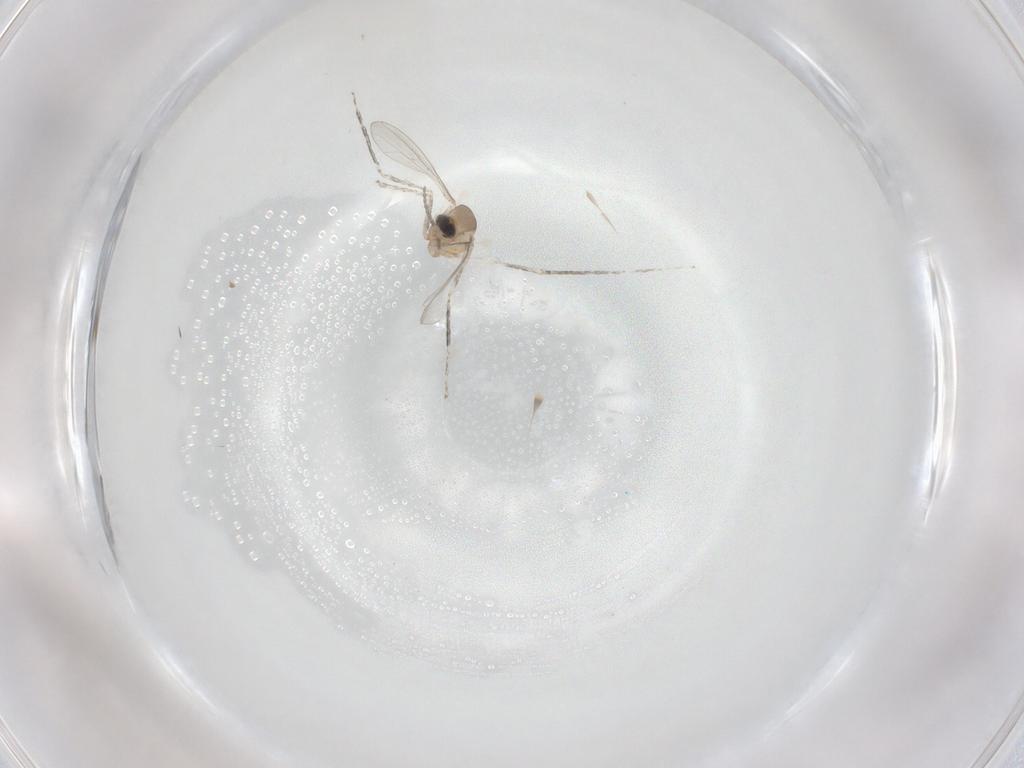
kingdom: Animalia
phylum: Arthropoda
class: Insecta
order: Diptera
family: Cecidomyiidae
